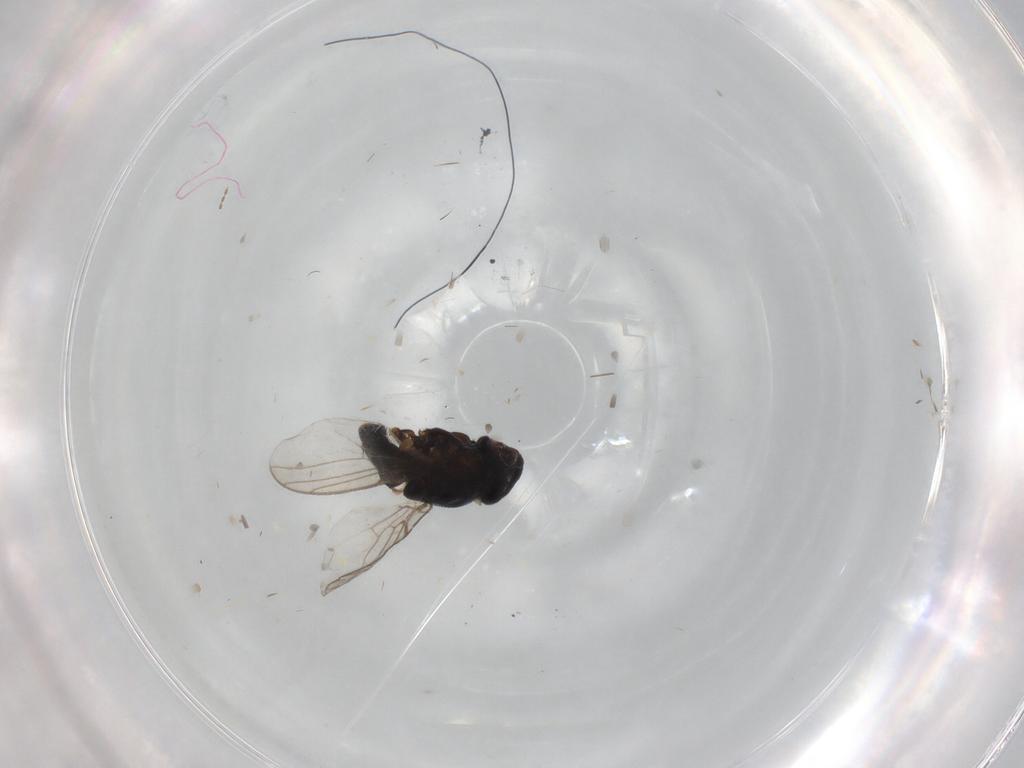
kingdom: Animalia
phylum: Arthropoda
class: Insecta
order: Diptera
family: Chloropidae
